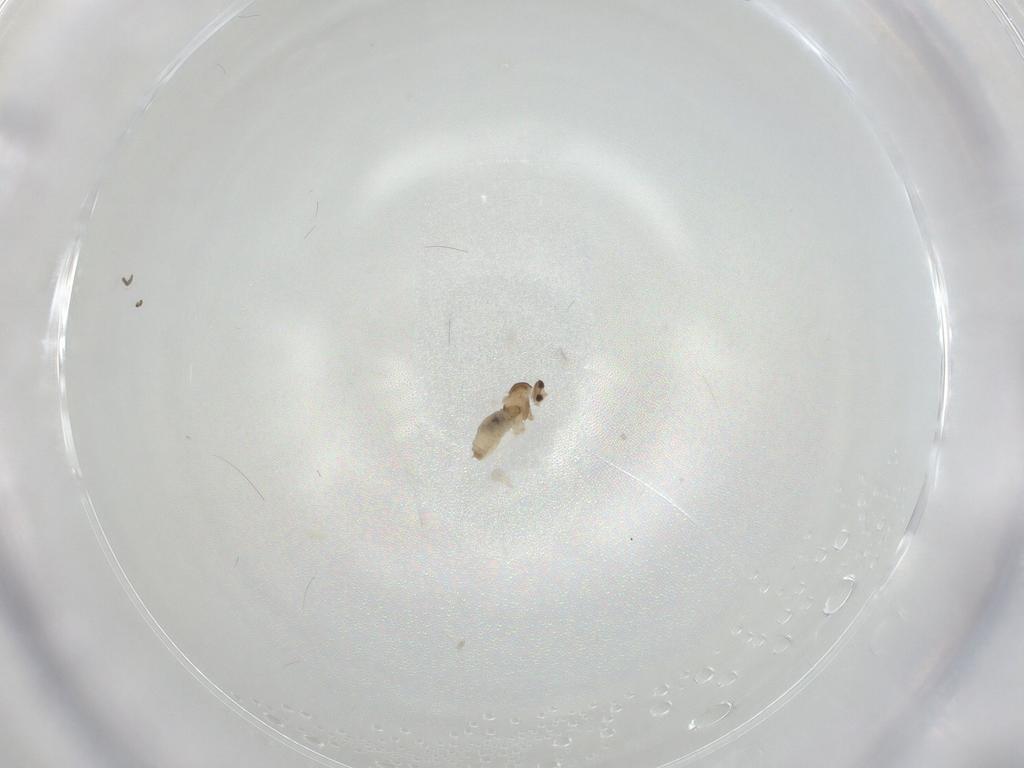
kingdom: Animalia
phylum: Arthropoda
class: Insecta
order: Diptera
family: Cecidomyiidae
